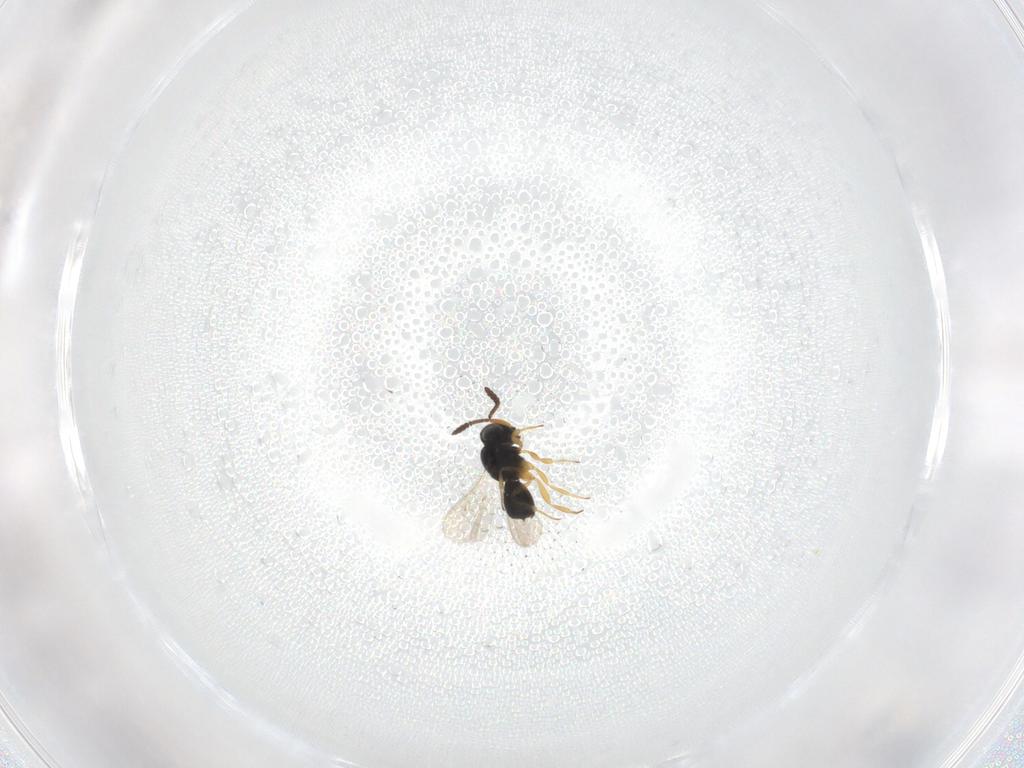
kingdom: Animalia
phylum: Arthropoda
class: Insecta
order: Hymenoptera
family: Scelionidae
